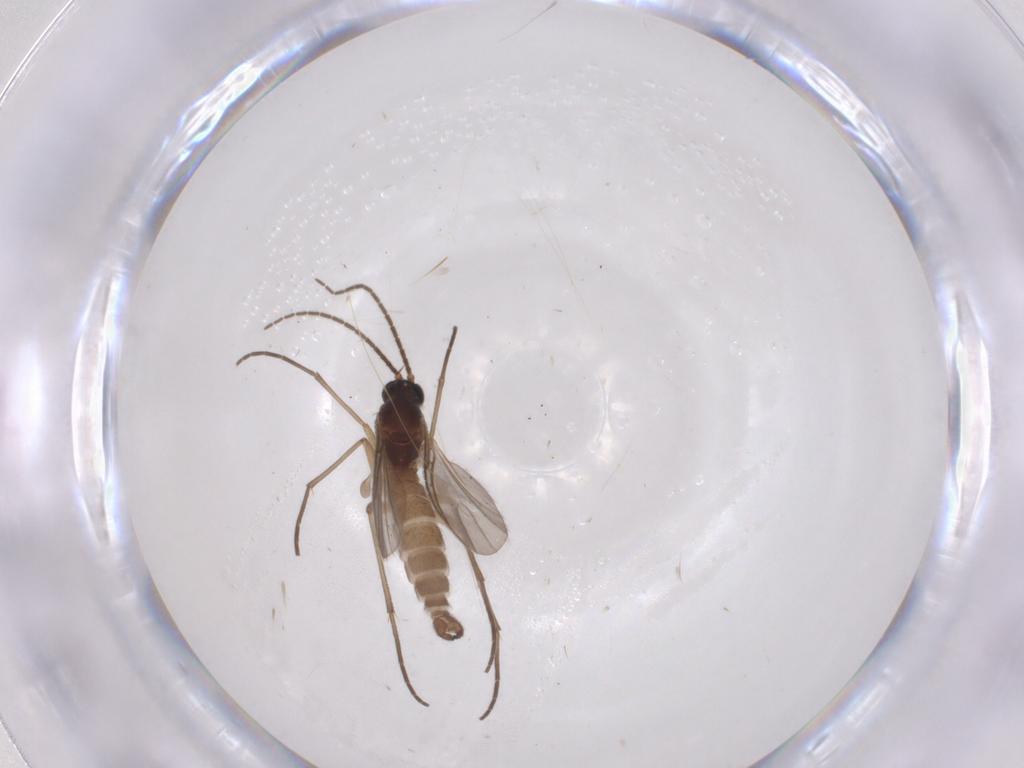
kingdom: Animalia
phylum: Arthropoda
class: Insecta
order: Diptera
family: Sciaridae
